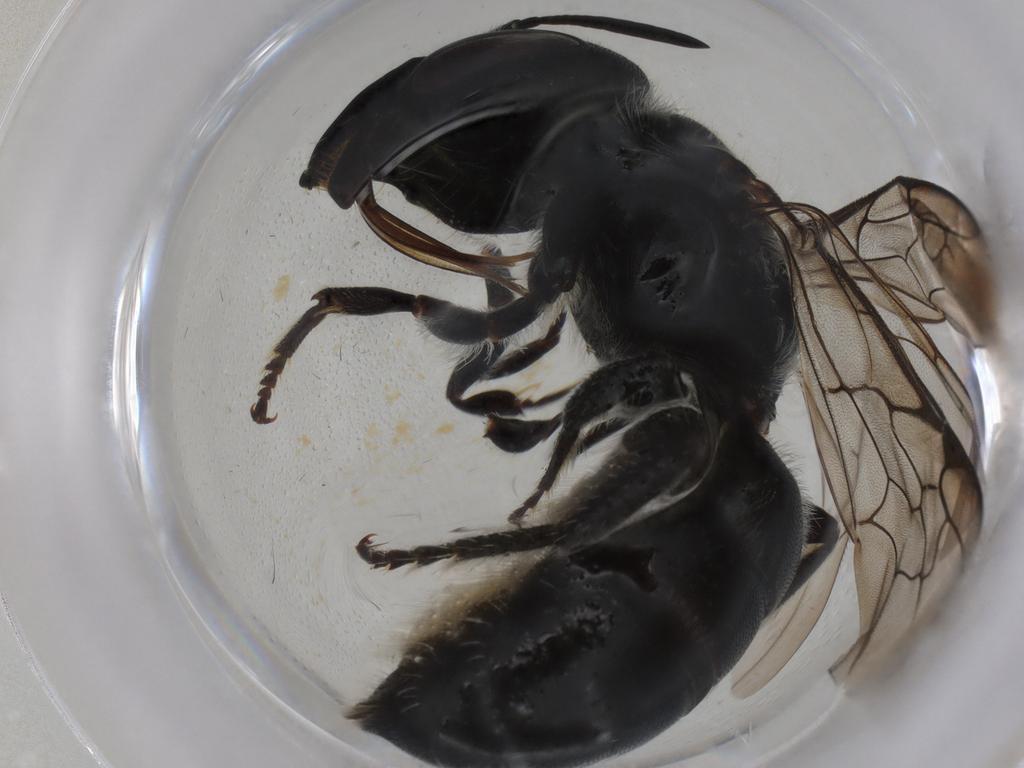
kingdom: Animalia
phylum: Arthropoda
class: Insecta
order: Hymenoptera
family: Megachilidae
